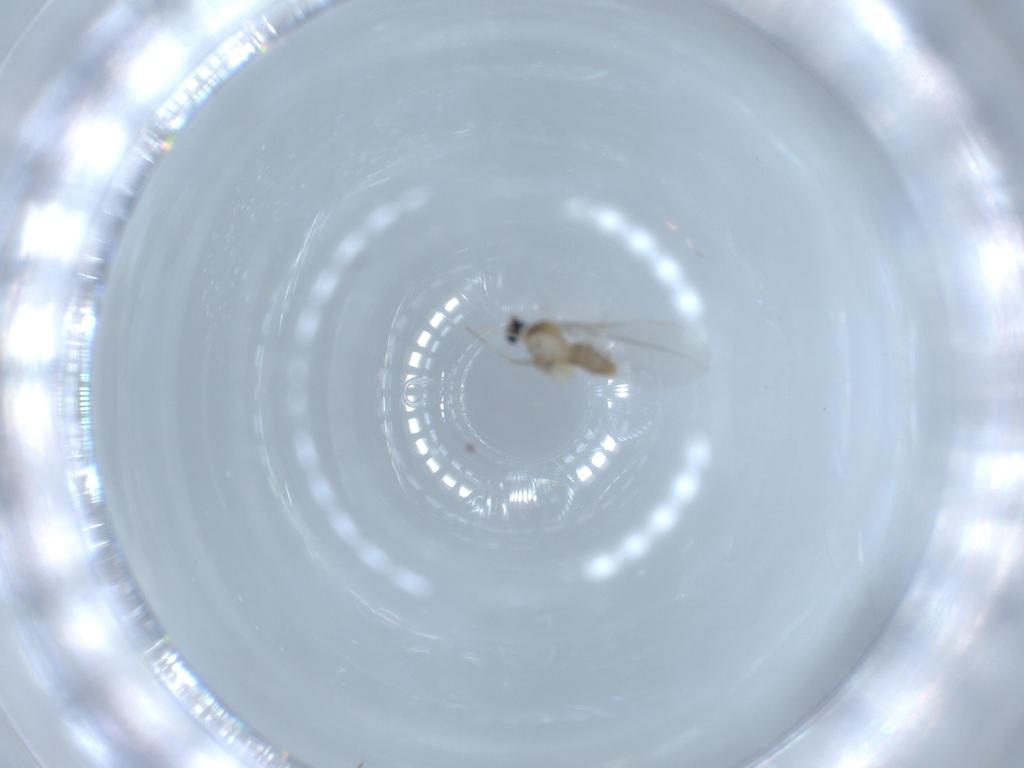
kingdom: Animalia
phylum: Arthropoda
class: Insecta
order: Diptera
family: Cecidomyiidae
